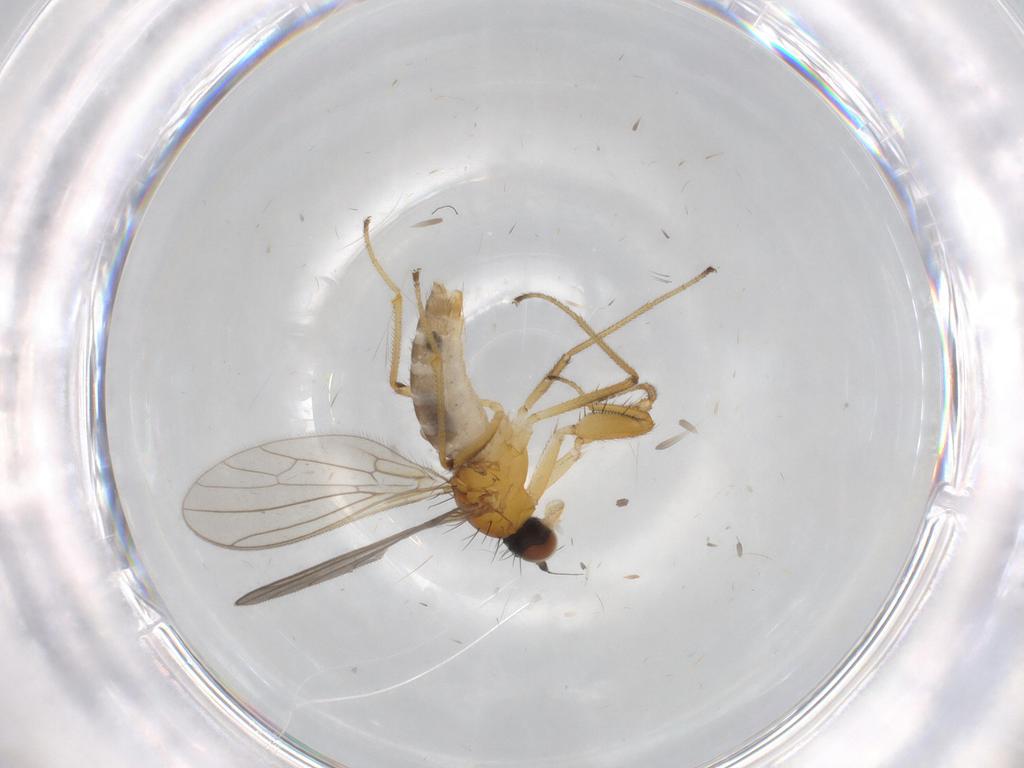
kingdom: Animalia
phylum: Arthropoda
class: Insecta
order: Diptera
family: Empididae
